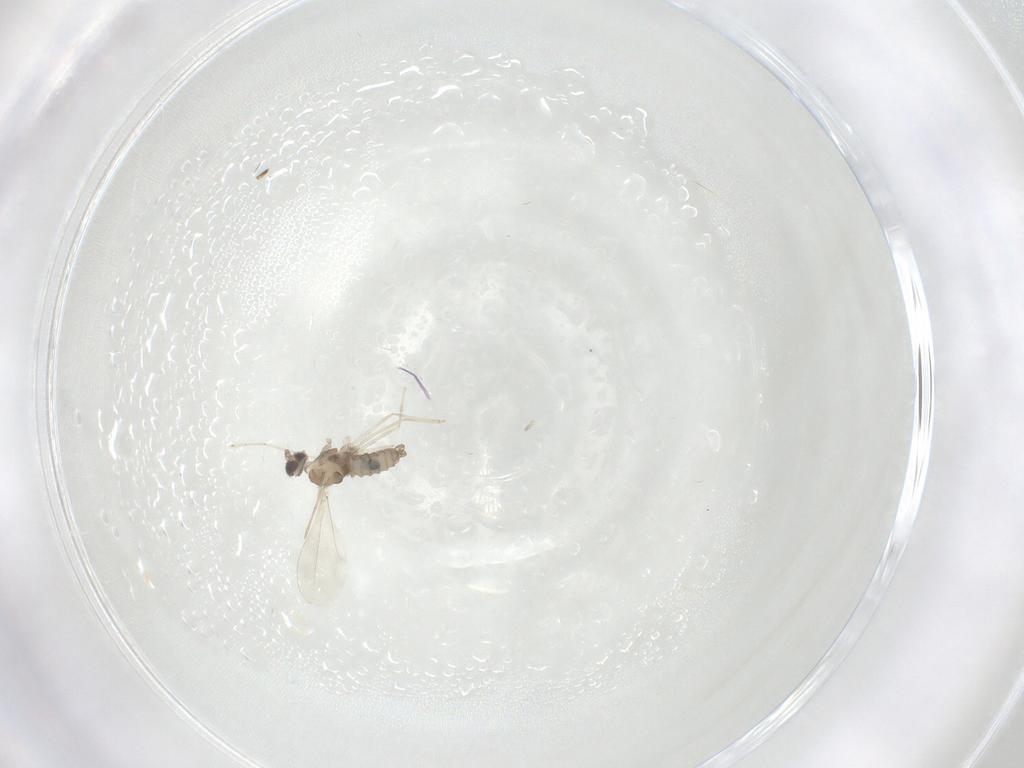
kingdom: Animalia
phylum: Arthropoda
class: Insecta
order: Diptera
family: Cecidomyiidae
